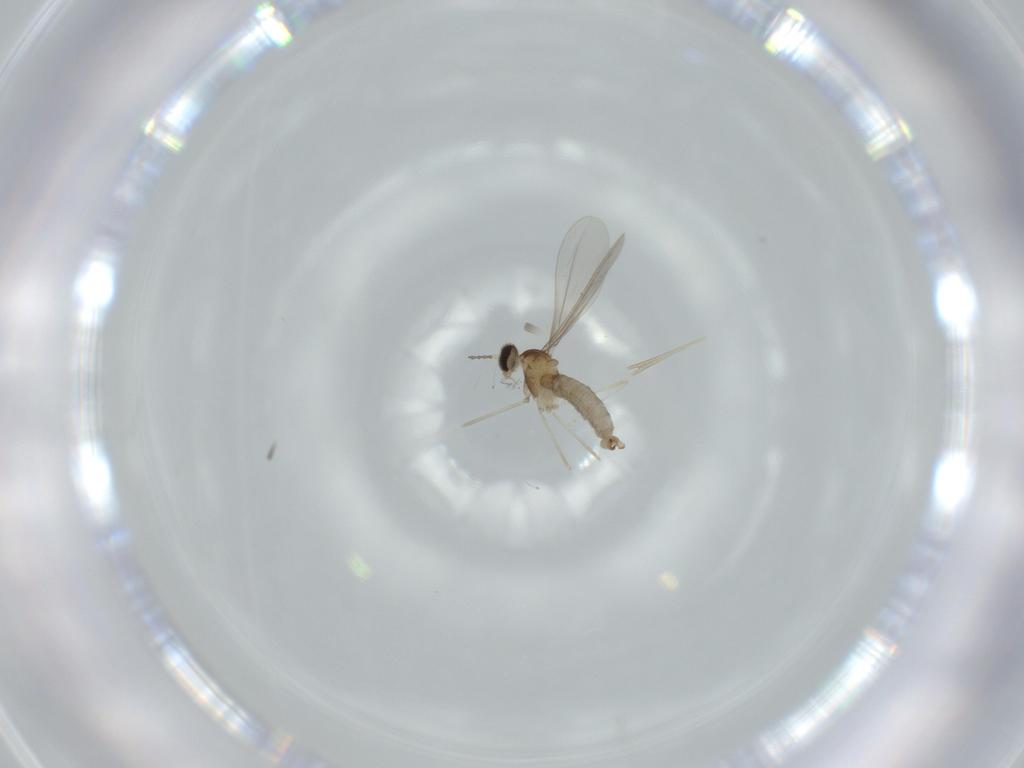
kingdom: Animalia
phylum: Arthropoda
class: Insecta
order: Diptera
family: Cecidomyiidae
